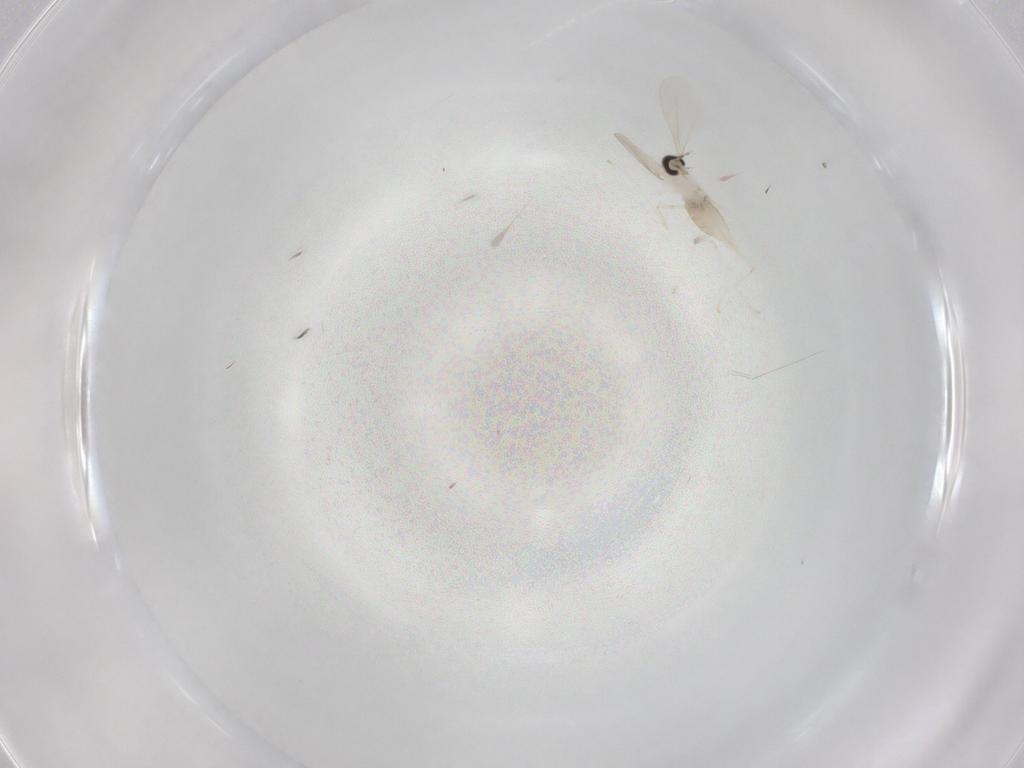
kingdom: Animalia
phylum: Arthropoda
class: Insecta
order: Diptera
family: Cecidomyiidae
